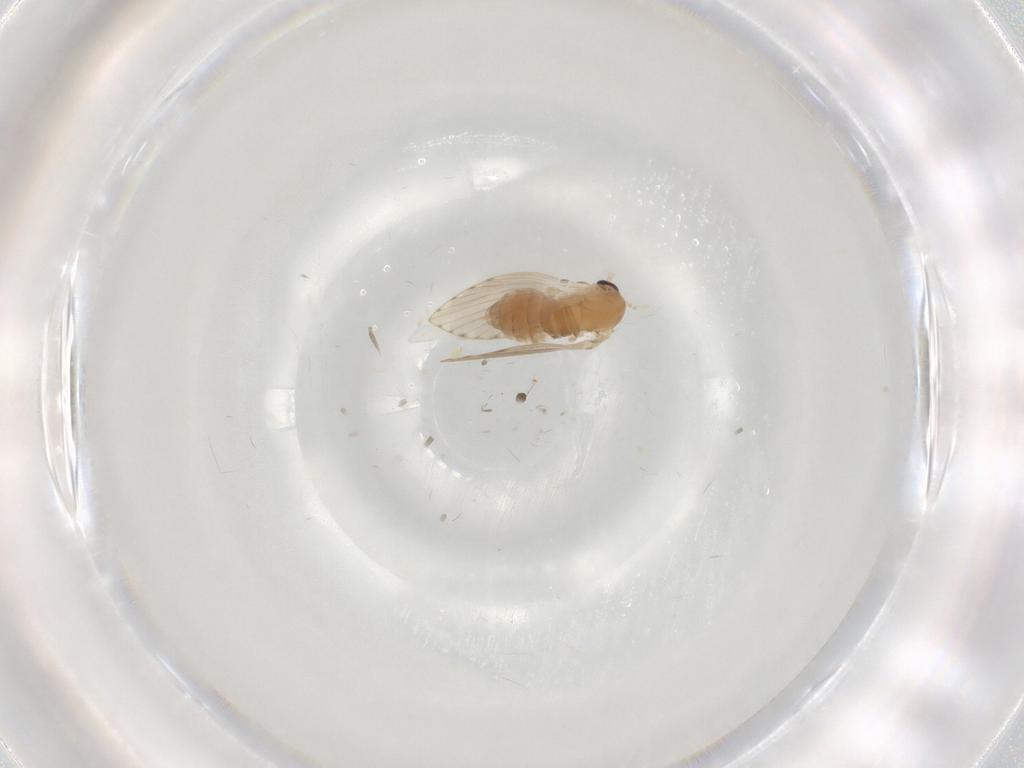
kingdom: Animalia
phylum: Arthropoda
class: Insecta
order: Diptera
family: Psychodidae
